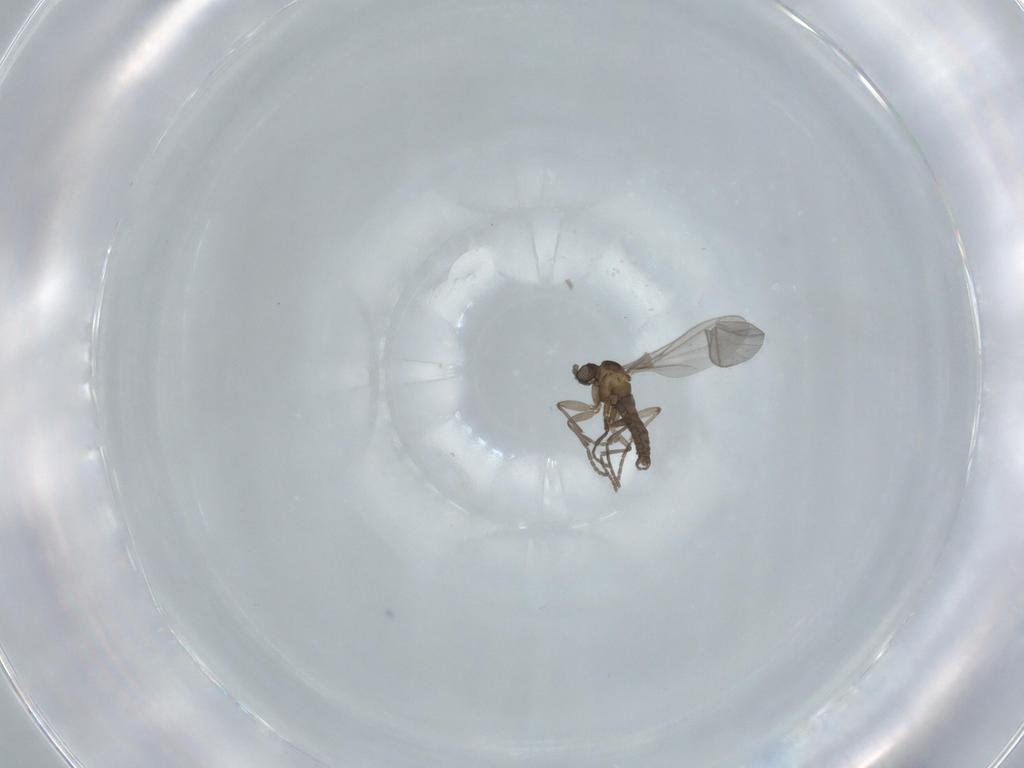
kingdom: Animalia
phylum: Arthropoda
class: Insecta
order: Diptera
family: Sciaridae
